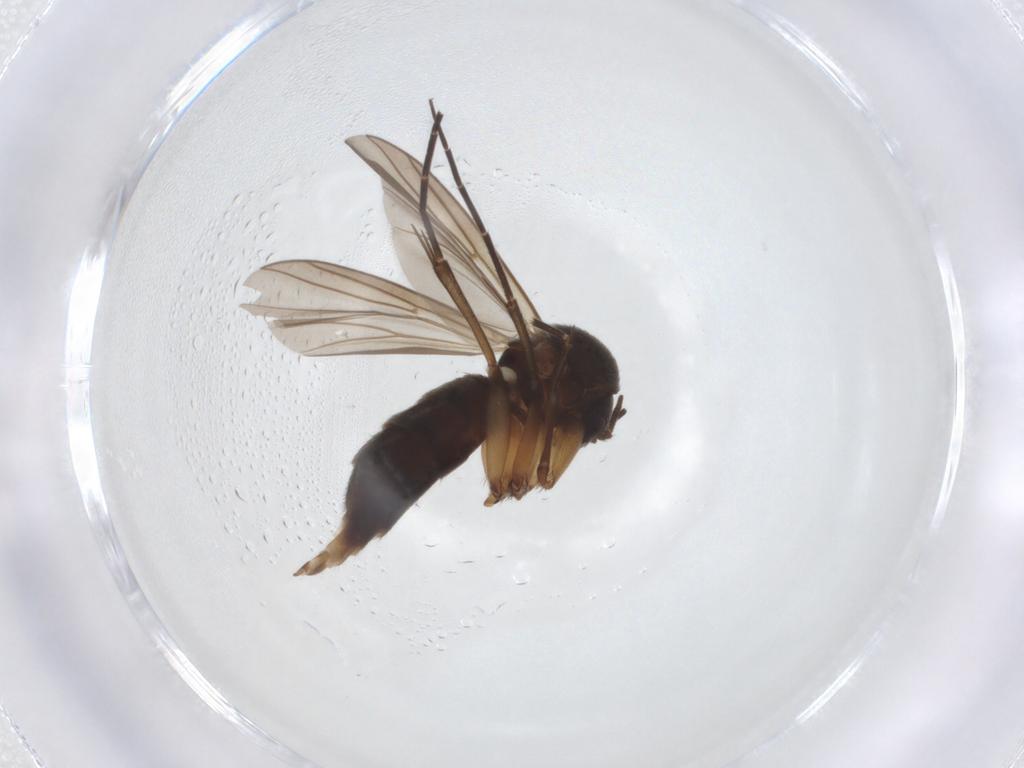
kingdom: Animalia
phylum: Arthropoda
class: Insecta
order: Diptera
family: Mycetophilidae
